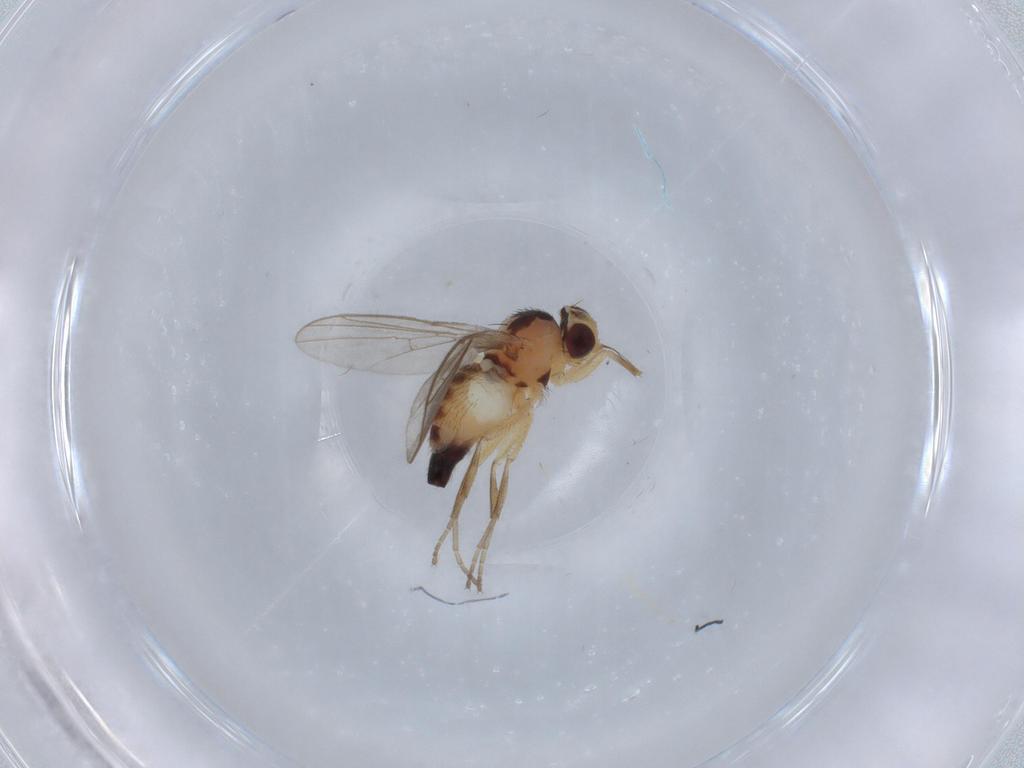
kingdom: Animalia
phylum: Arthropoda
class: Insecta
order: Diptera
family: Agromyzidae
